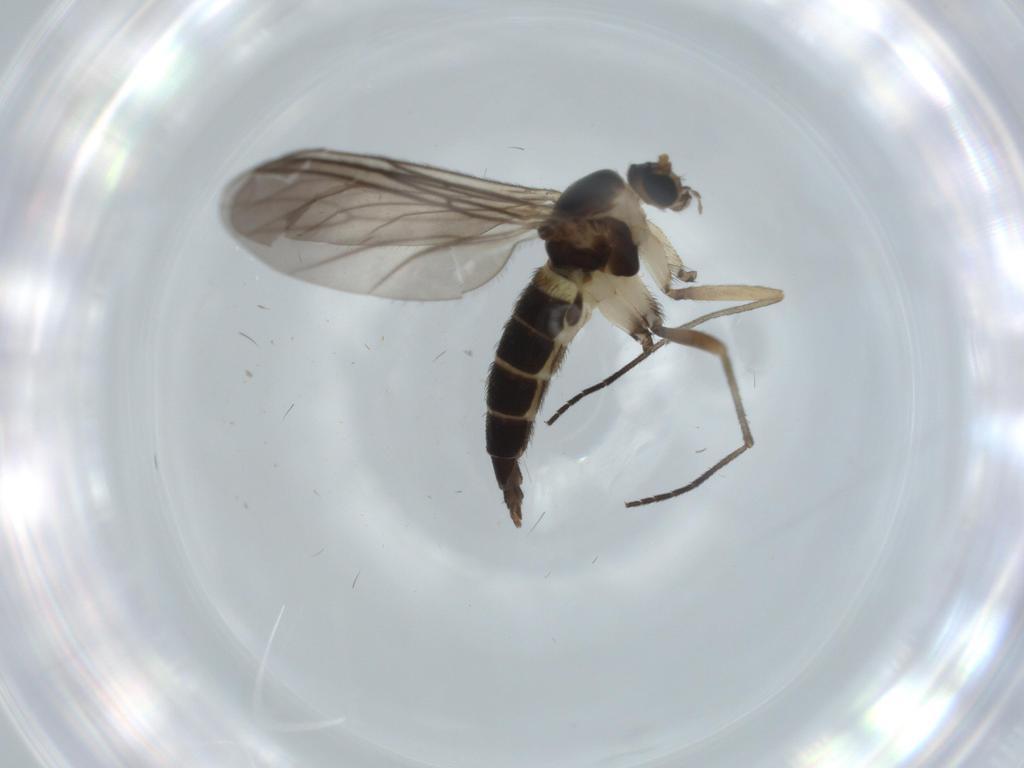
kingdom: Animalia
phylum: Arthropoda
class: Insecta
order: Diptera
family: Sciaridae
